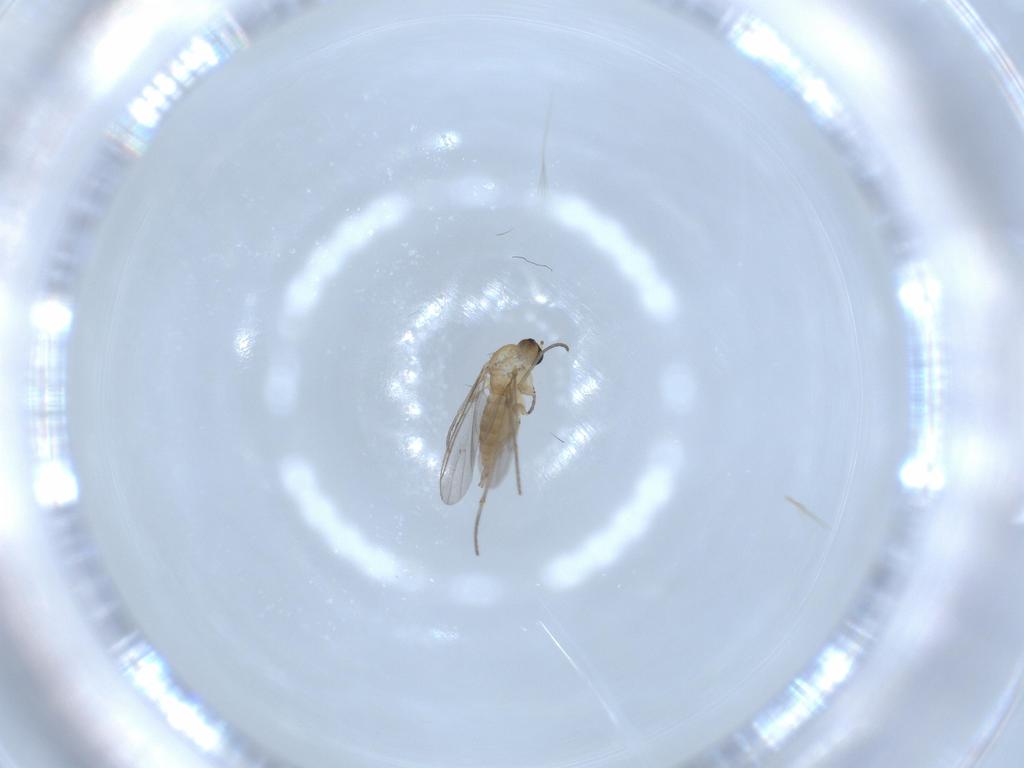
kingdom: Animalia
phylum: Arthropoda
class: Insecta
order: Diptera
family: Sciaridae
